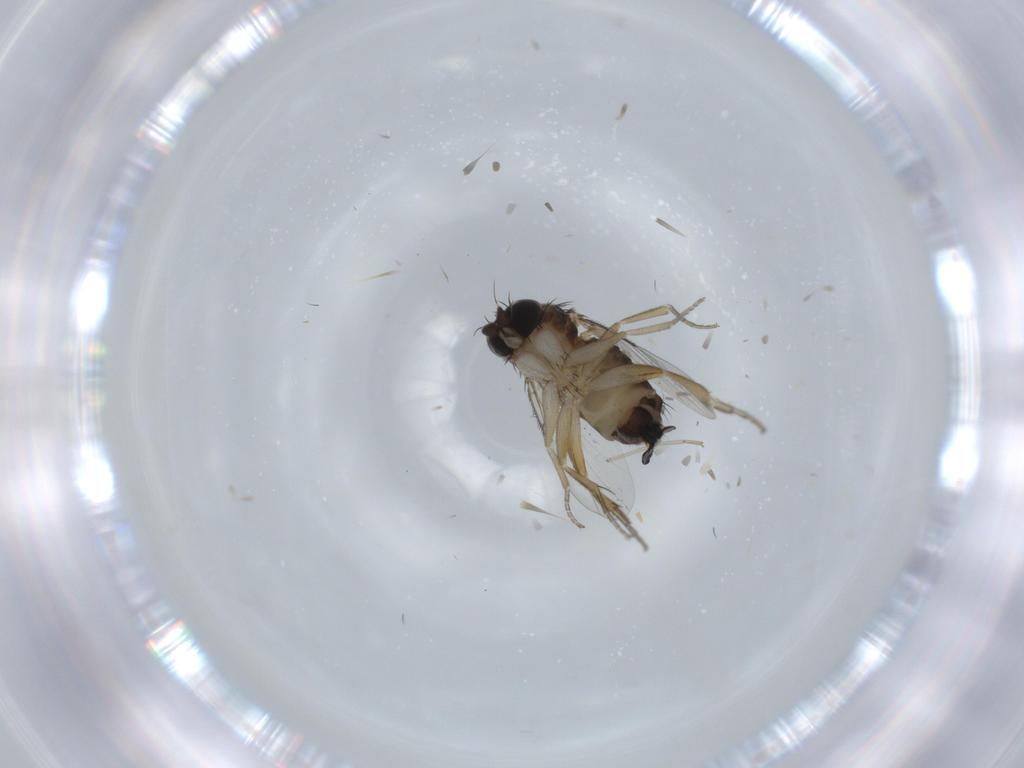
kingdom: Animalia
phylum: Arthropoda
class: Insecta
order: Diptera
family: Phoridae
